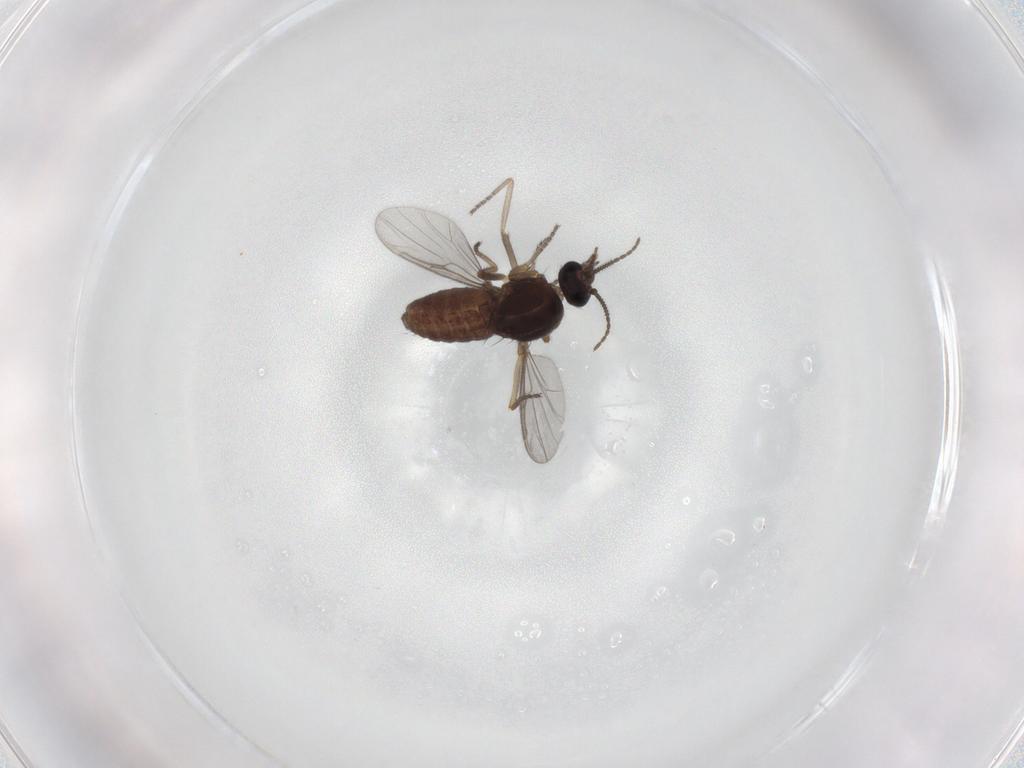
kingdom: Animalia
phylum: Arthropoda
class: Insecta
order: Diptera
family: Ceratopogonidae
